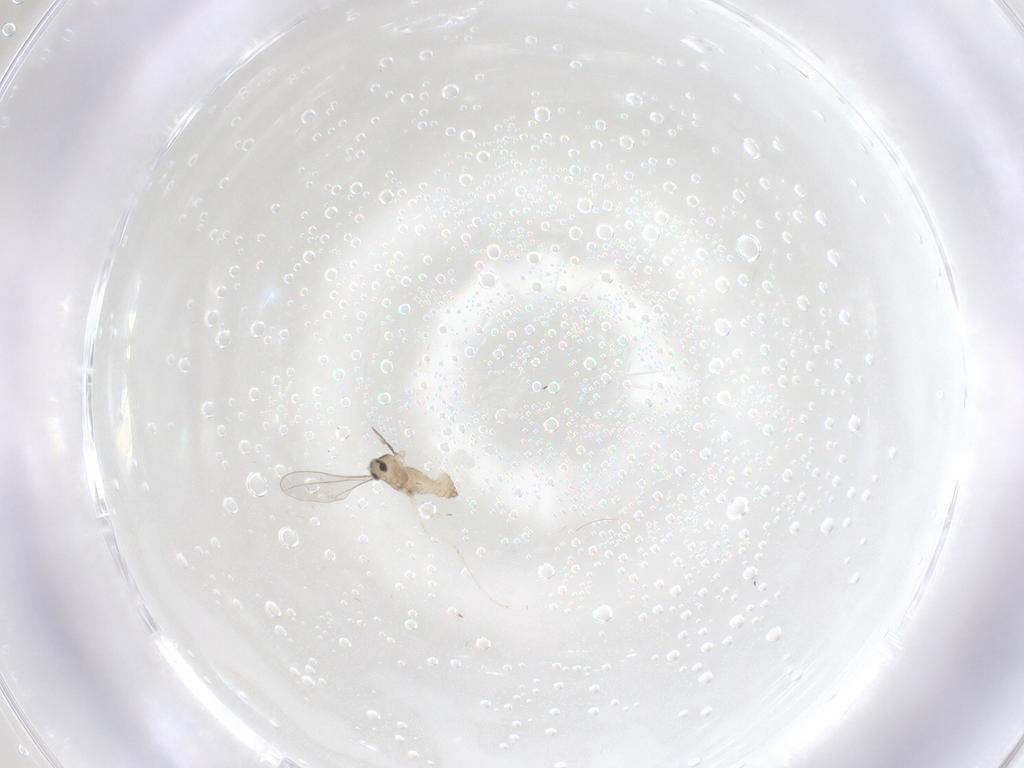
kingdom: Animalia
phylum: Arthropoda
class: Insecta
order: Diptera
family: Cecidomyiidae
